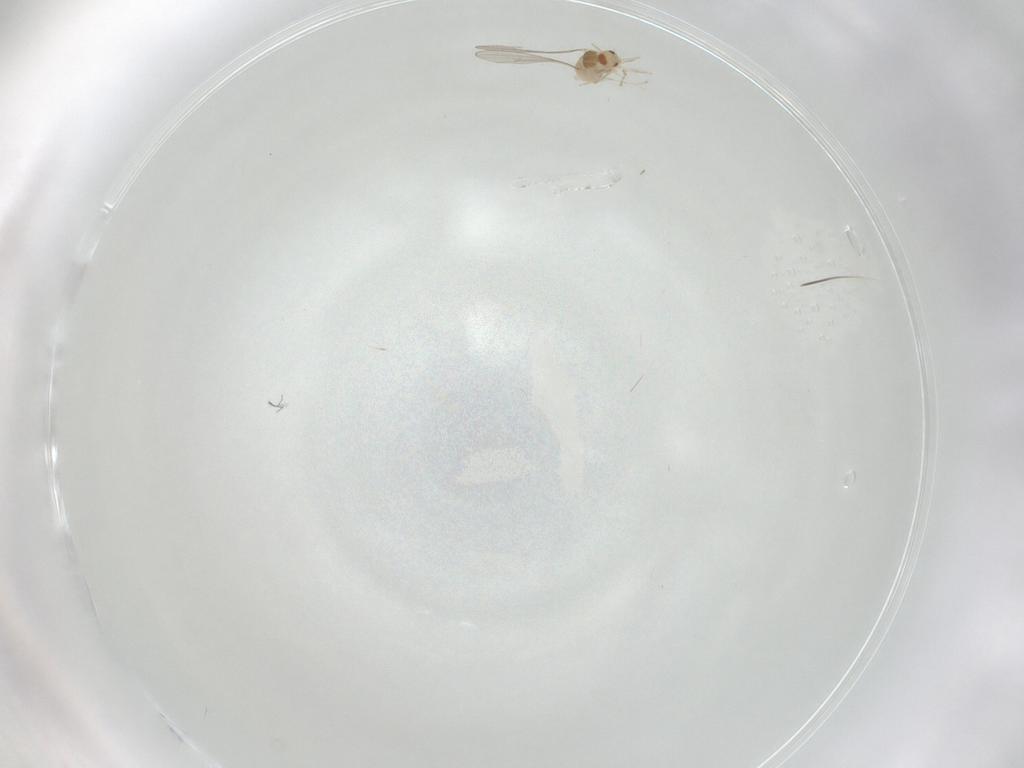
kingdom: Animalia
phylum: Arthropoda
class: Insecta
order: Diptera
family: Cecidomyiidae
